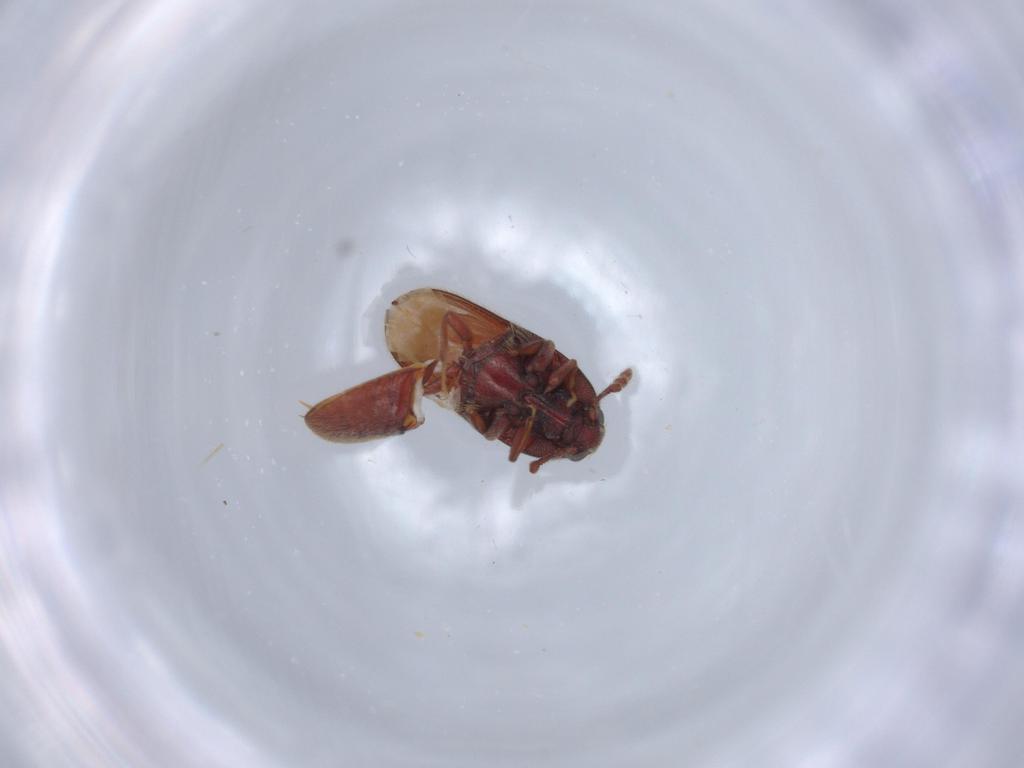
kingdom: Animalia
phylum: Arthropoda
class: Insecta
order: Coleoptera
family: Throscidae
